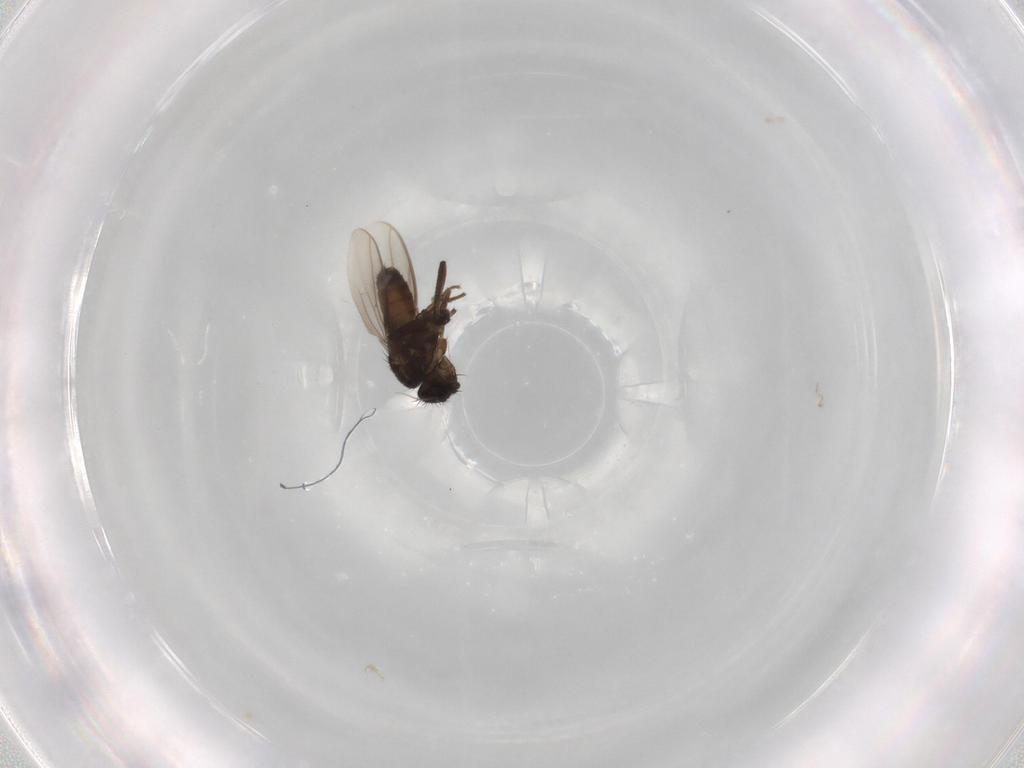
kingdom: Animalia
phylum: Arthropoda
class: Insecta
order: Diptera
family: Sphaeroceridae
